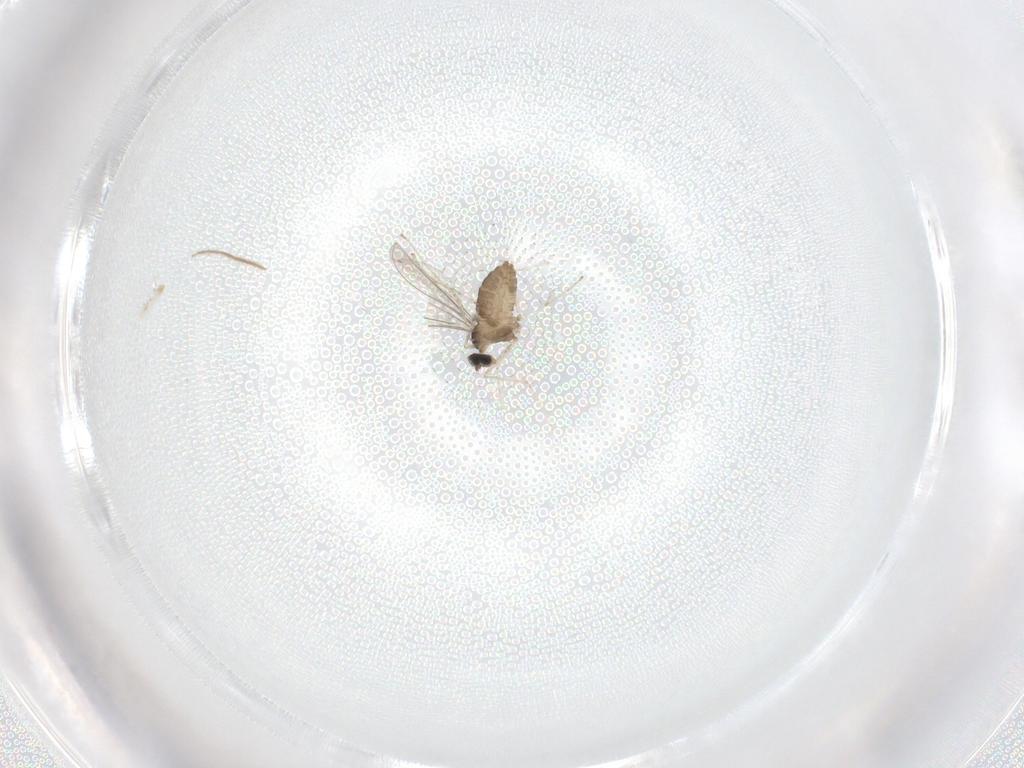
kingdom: Animalia
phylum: Arthropoda
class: Insecta
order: Diptera
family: Cecidomyiidae
